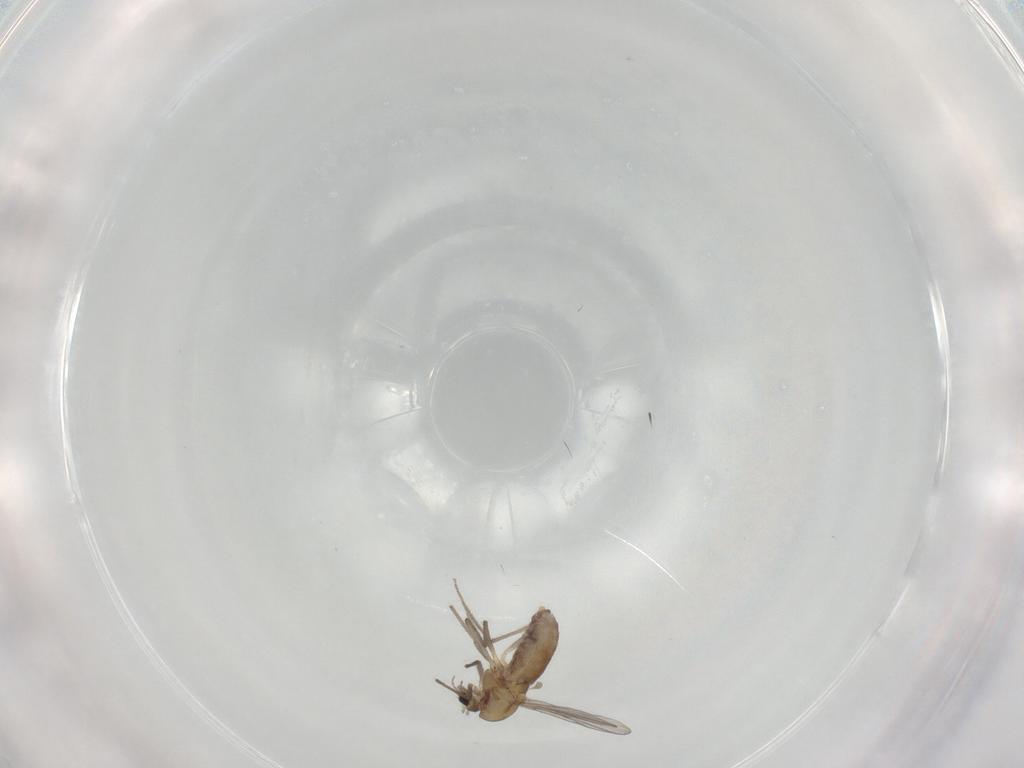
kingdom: Animalia
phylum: Arthropoda
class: Insecta
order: Diptera
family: Chironomidae
